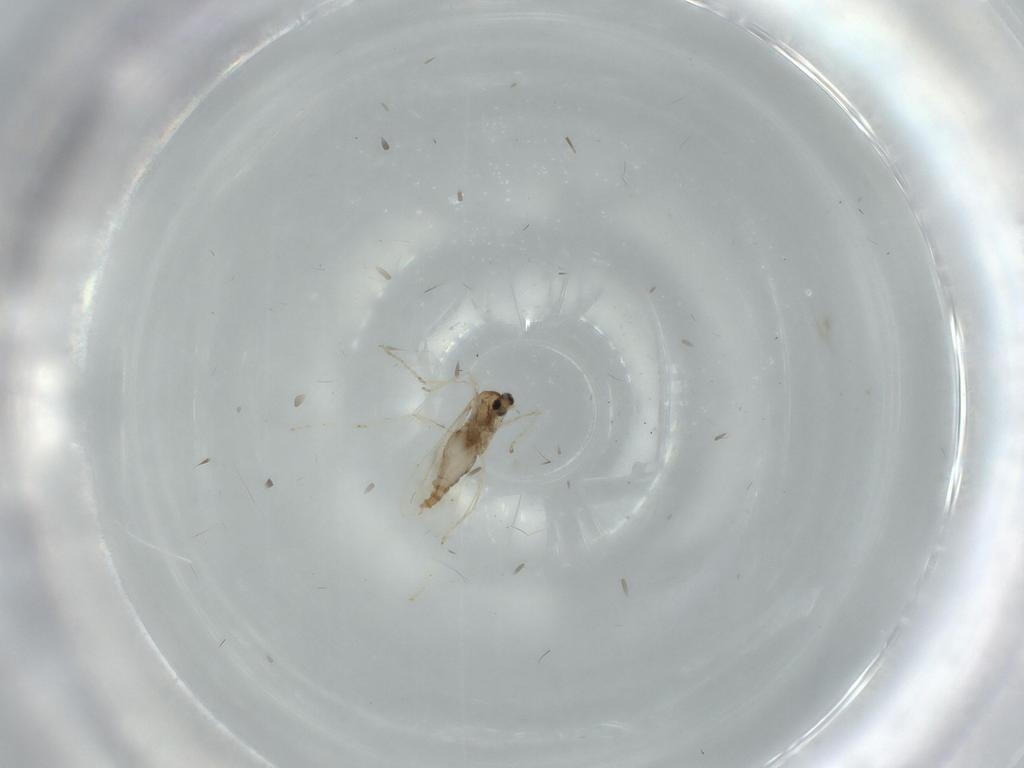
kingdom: Animalia
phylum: Arthropoda
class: Insecta
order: Diptera
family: Cecidomyiidae
